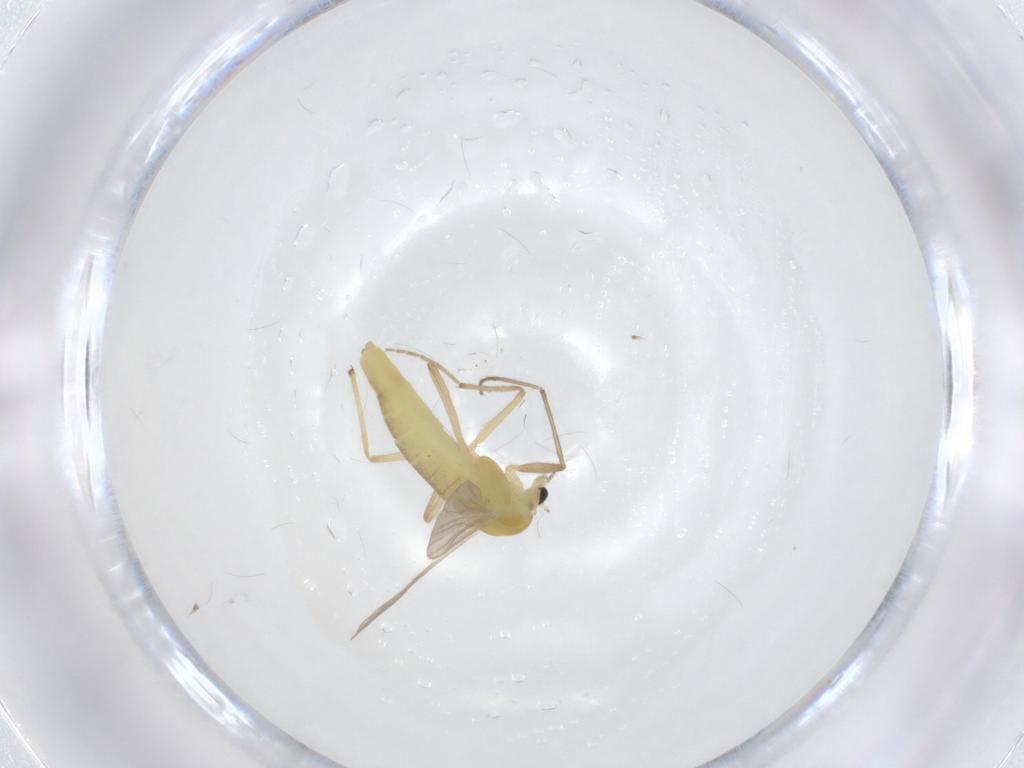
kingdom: Animalia
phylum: Arthropoda
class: Insecta
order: Diptera
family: Chironomidae
